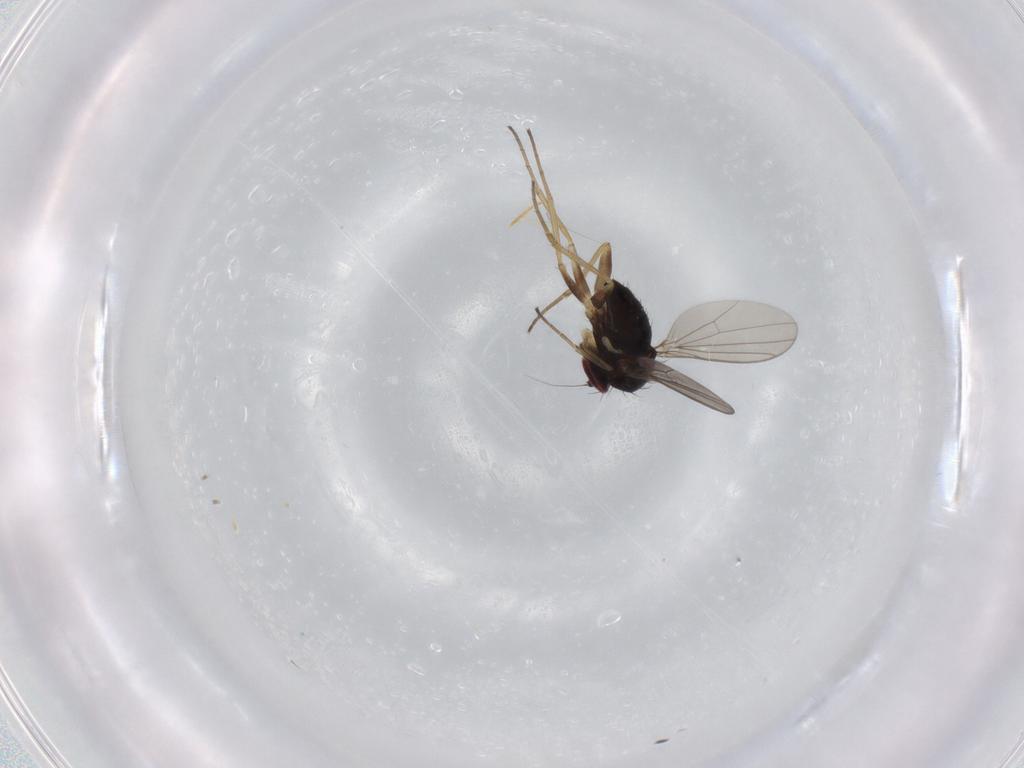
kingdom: Animalia
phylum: Arthropoda
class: Insecta
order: Diptera
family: Dolichopodidae
